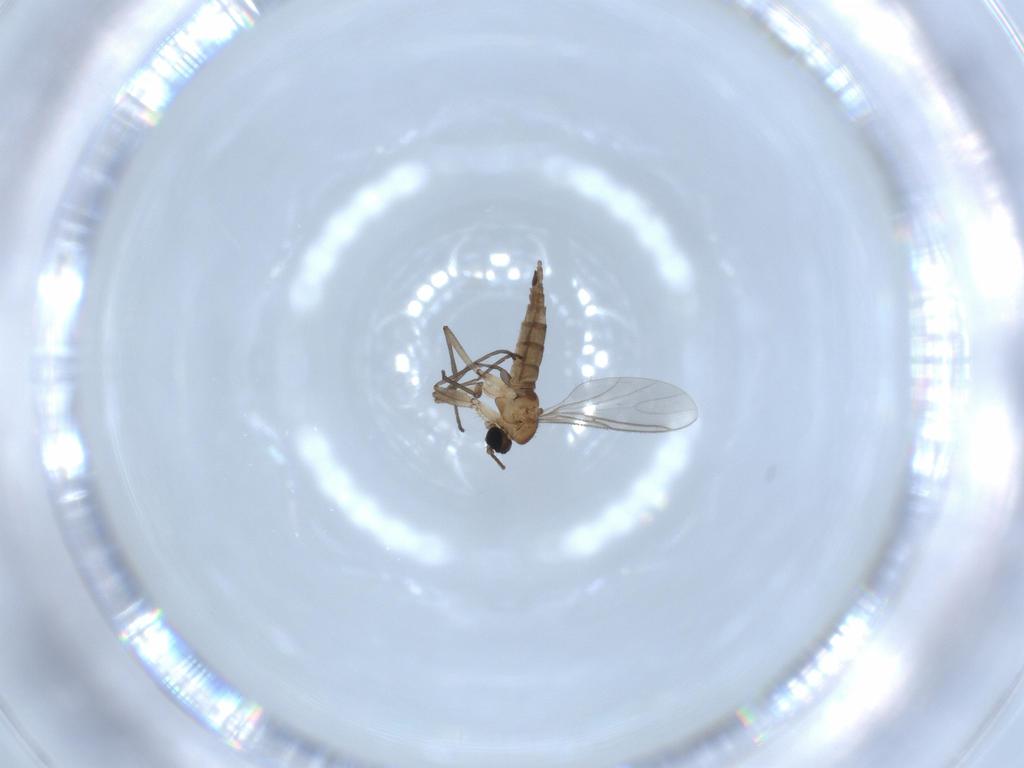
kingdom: Animalia
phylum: Arthropoda
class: Insecta
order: Diptera
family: Sciaridae
